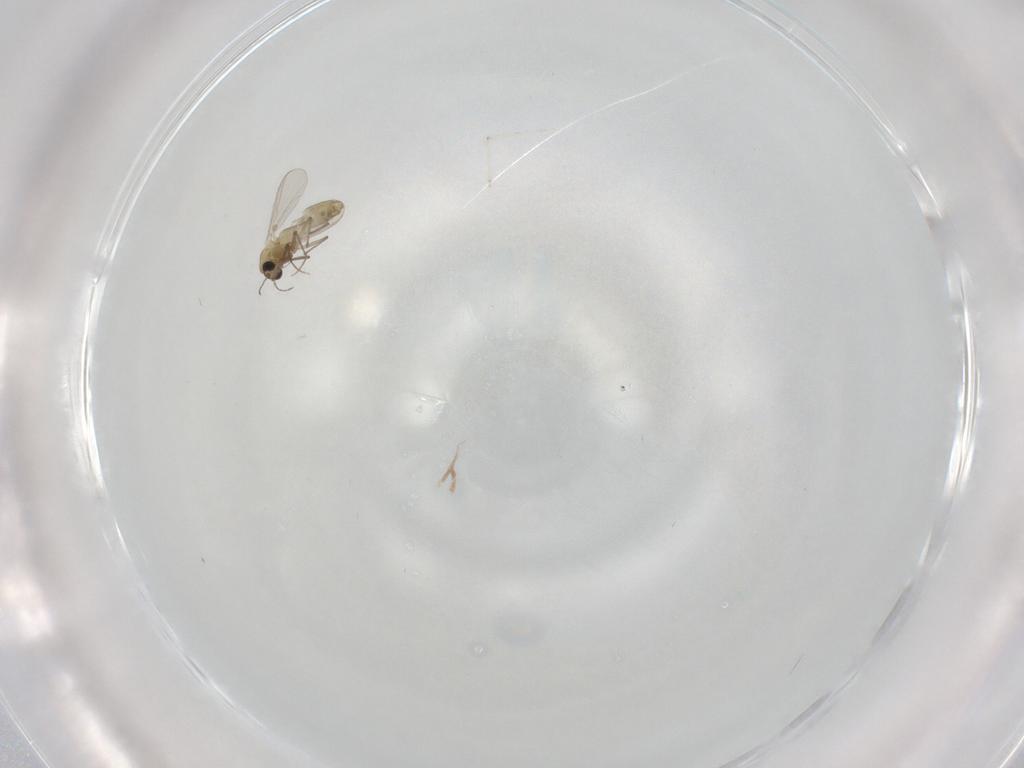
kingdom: Animalia
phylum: Arthropoda
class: Insecta
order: Diptera
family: Cecidomyiidae
